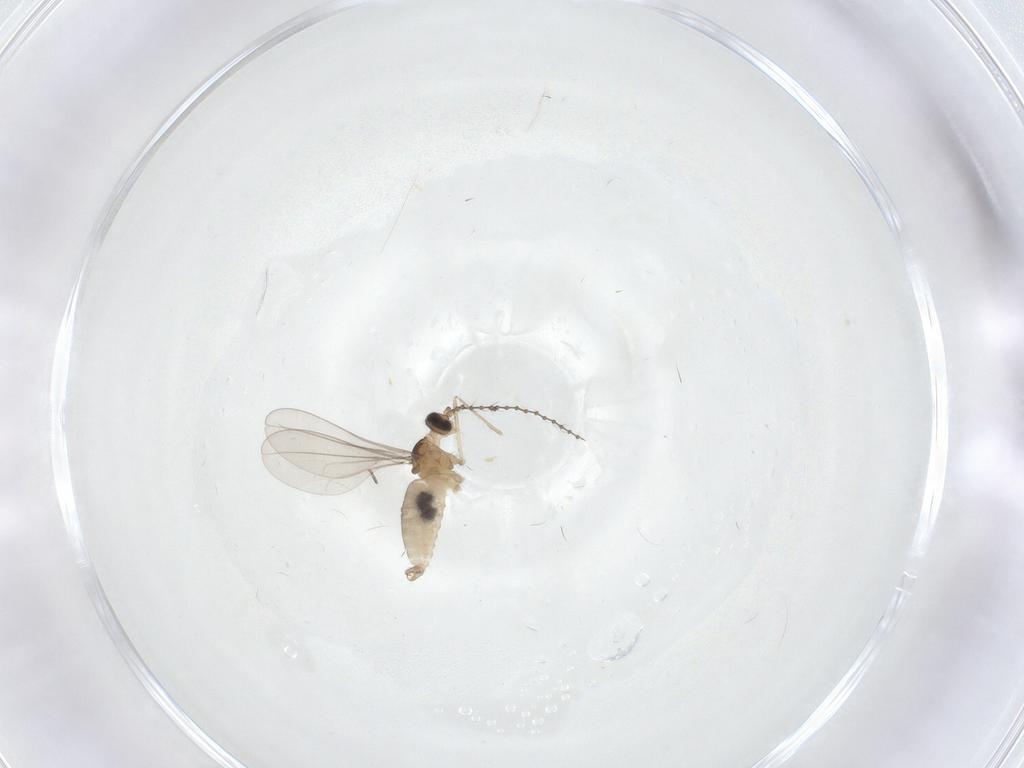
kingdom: Animalia
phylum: Arthropoda
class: Insecta
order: Diptera
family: Cecidomyiidae
